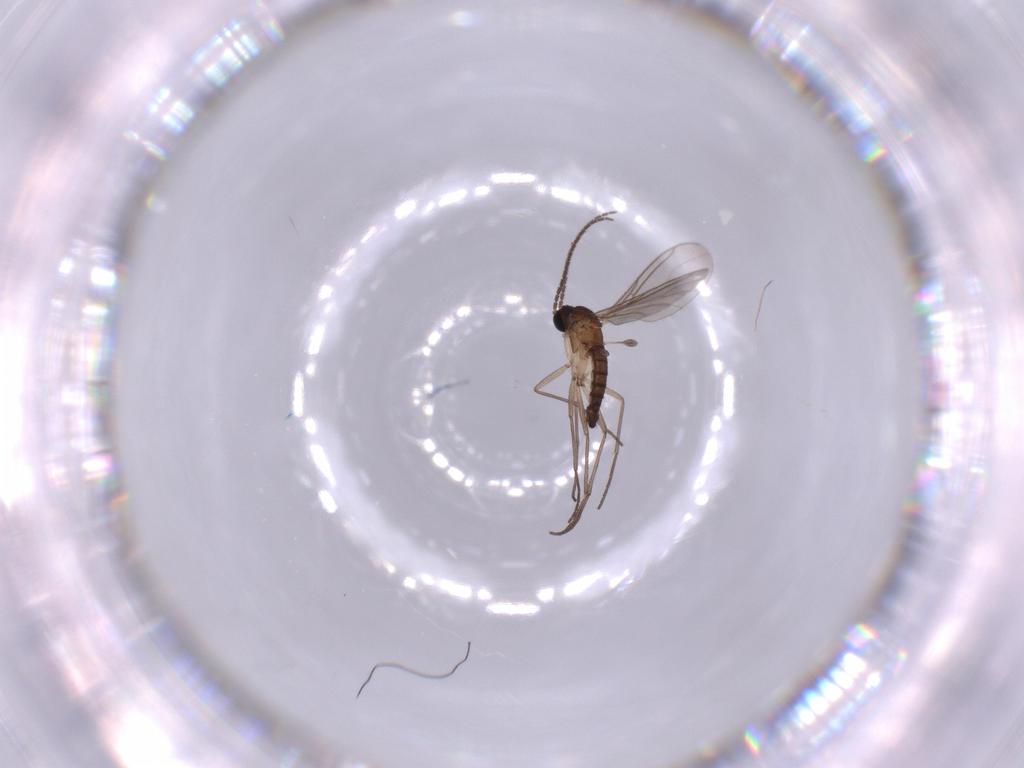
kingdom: Animalia
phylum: Arthropoda
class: Insecta
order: Diptera
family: Sciaridae
